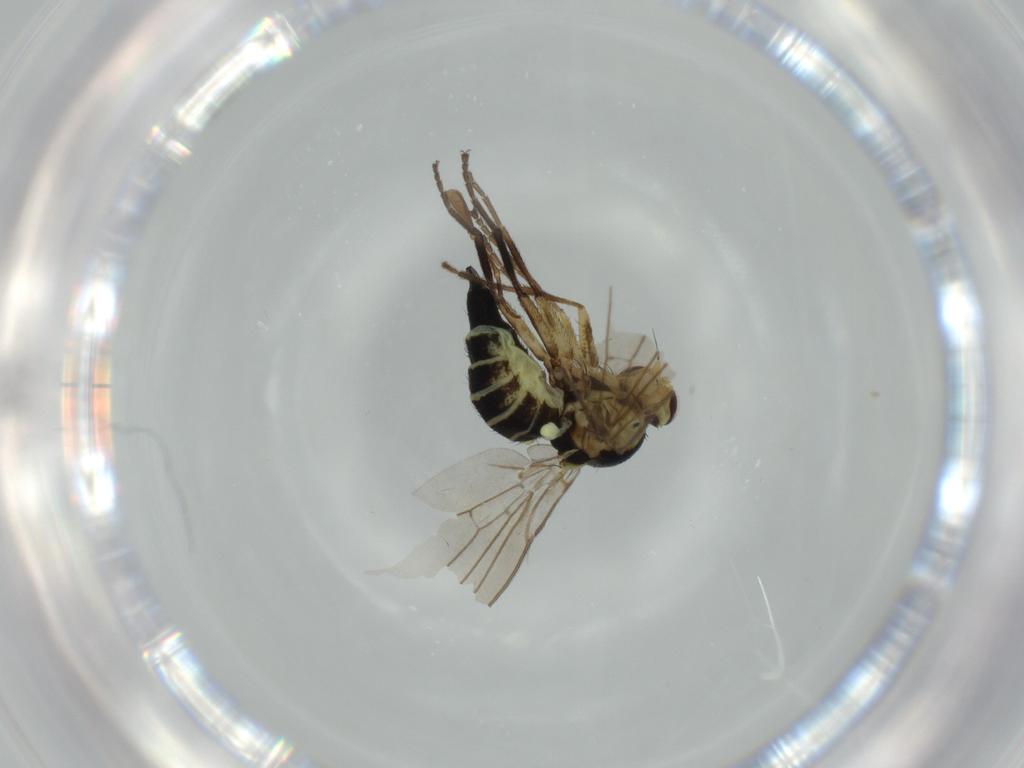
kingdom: Animalia
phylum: Arthropoda
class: Insecta
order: Diptera
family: Agromyzidae
